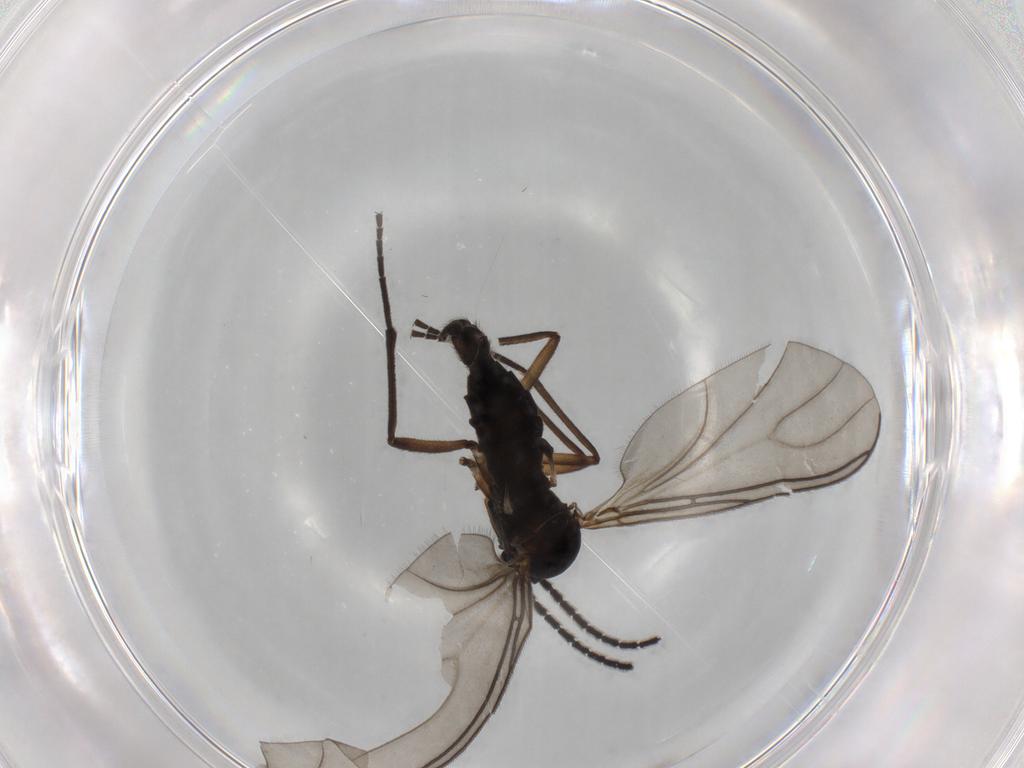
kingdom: Animalia
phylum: Arthropoda
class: Insecta
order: Diptera
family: Sciaridae
